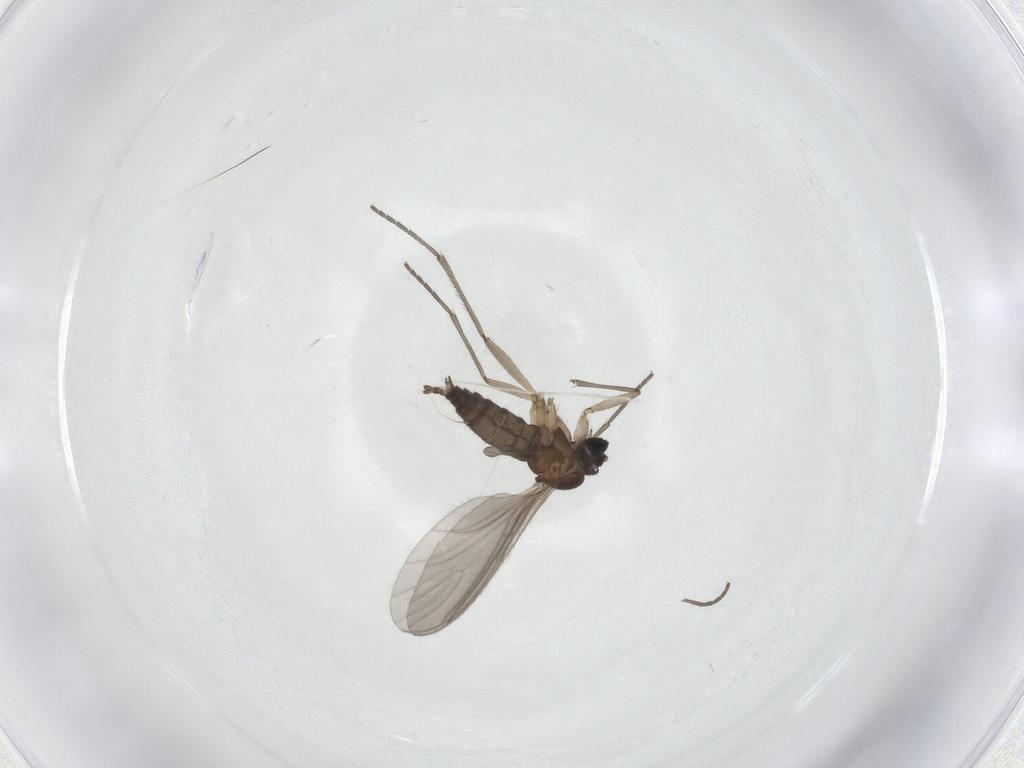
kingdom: Animalia
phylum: Arthropoda
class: Insecta
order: Diptera
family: Sciaridae
